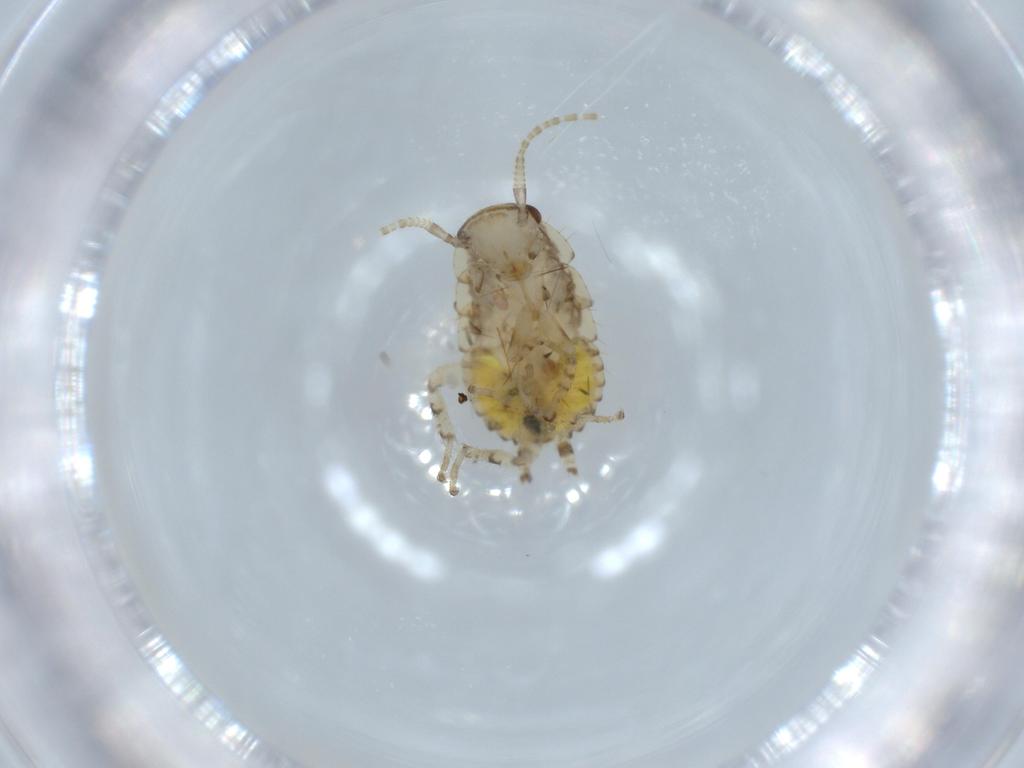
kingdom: Animalia
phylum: Arthropoda
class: Insecta
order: Blattodea
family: Ectobiidae
